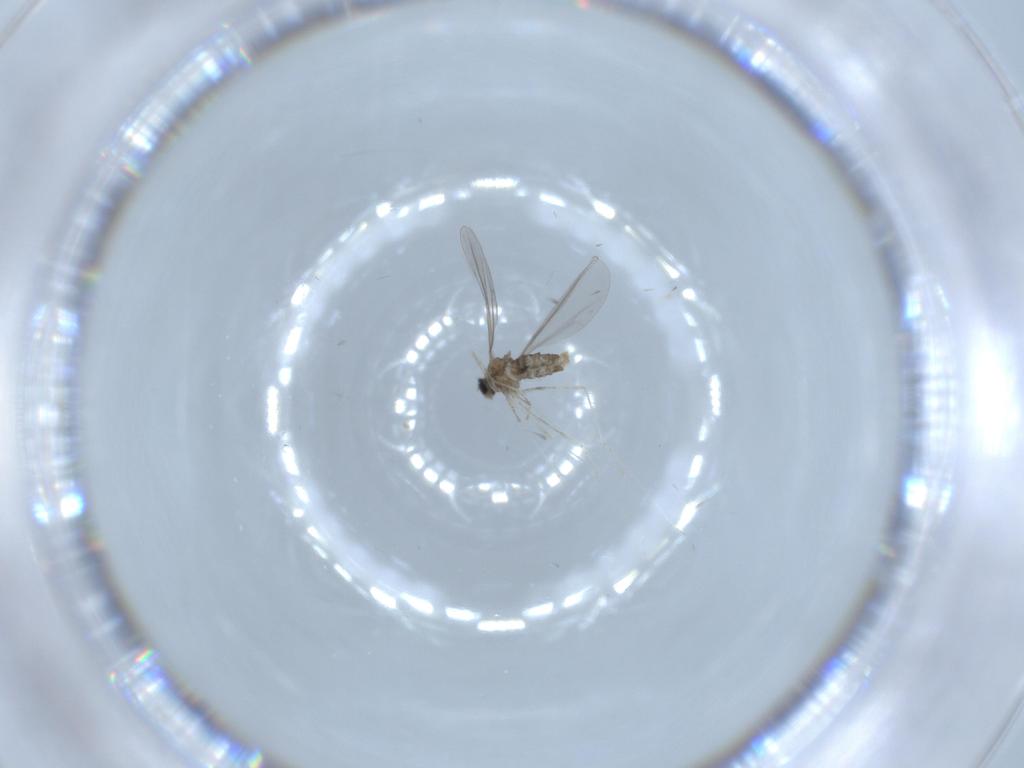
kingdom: Animalia
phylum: Arthropoda
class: Insecta
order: Diptera
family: Cecidomyiidae
